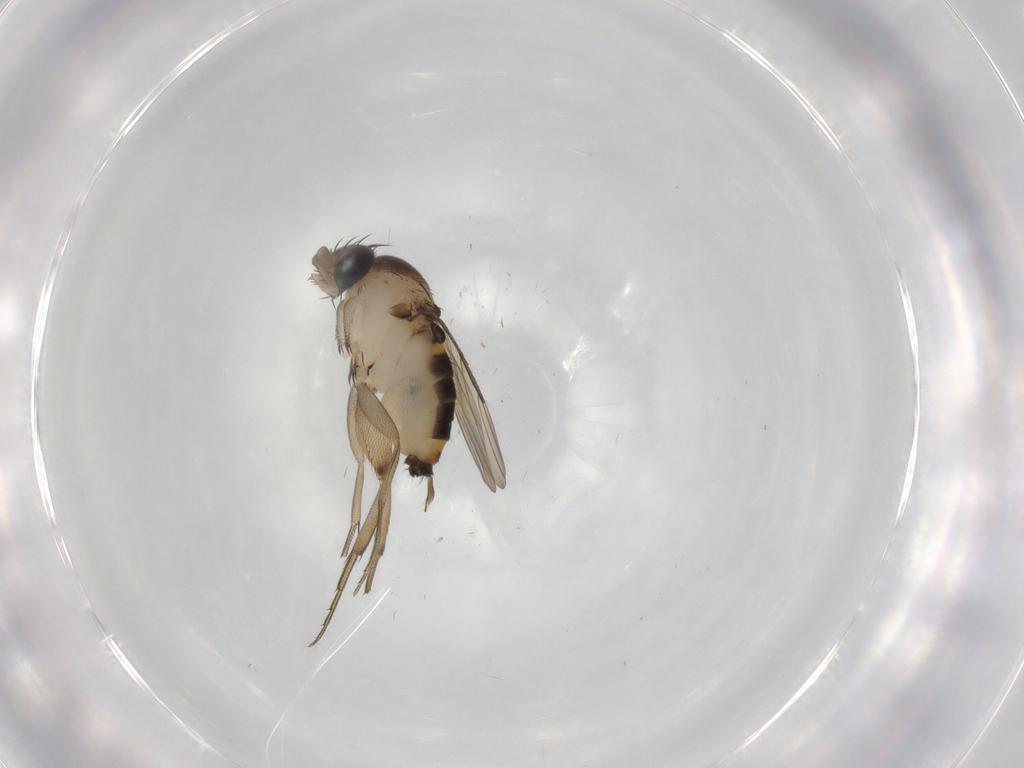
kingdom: Animalia
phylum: Arthropoda
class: Insecta
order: Diptera
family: Phoridae
